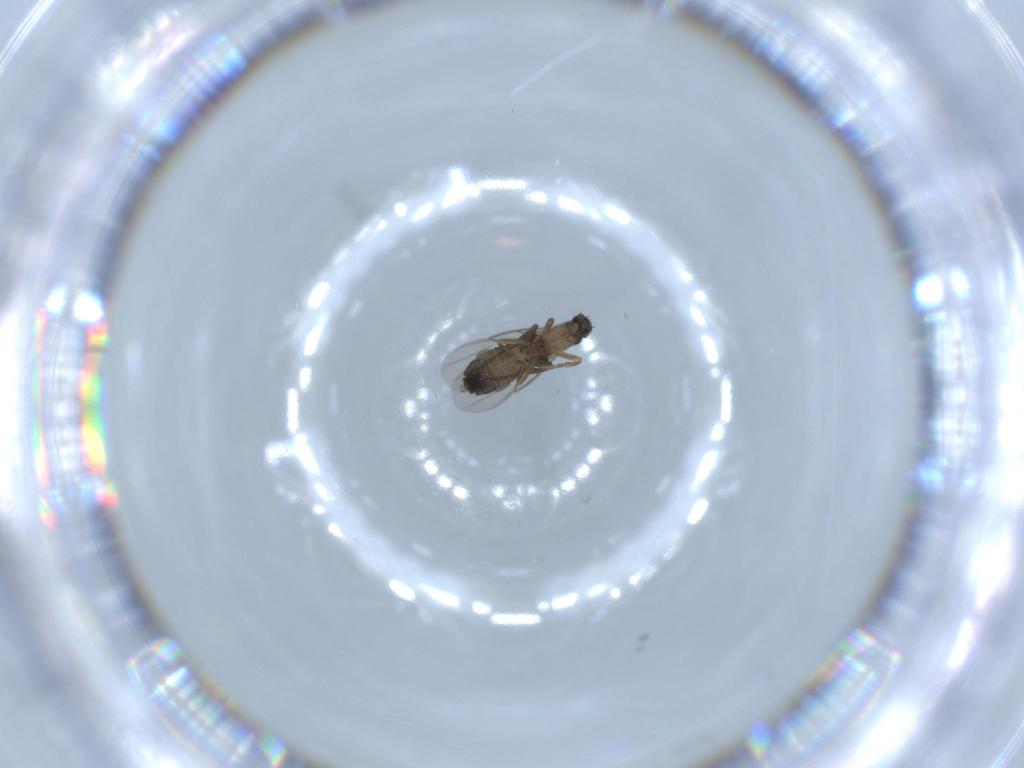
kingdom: Animalia
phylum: Arthropoda
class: Insecta
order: Diptera
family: Phoridae
